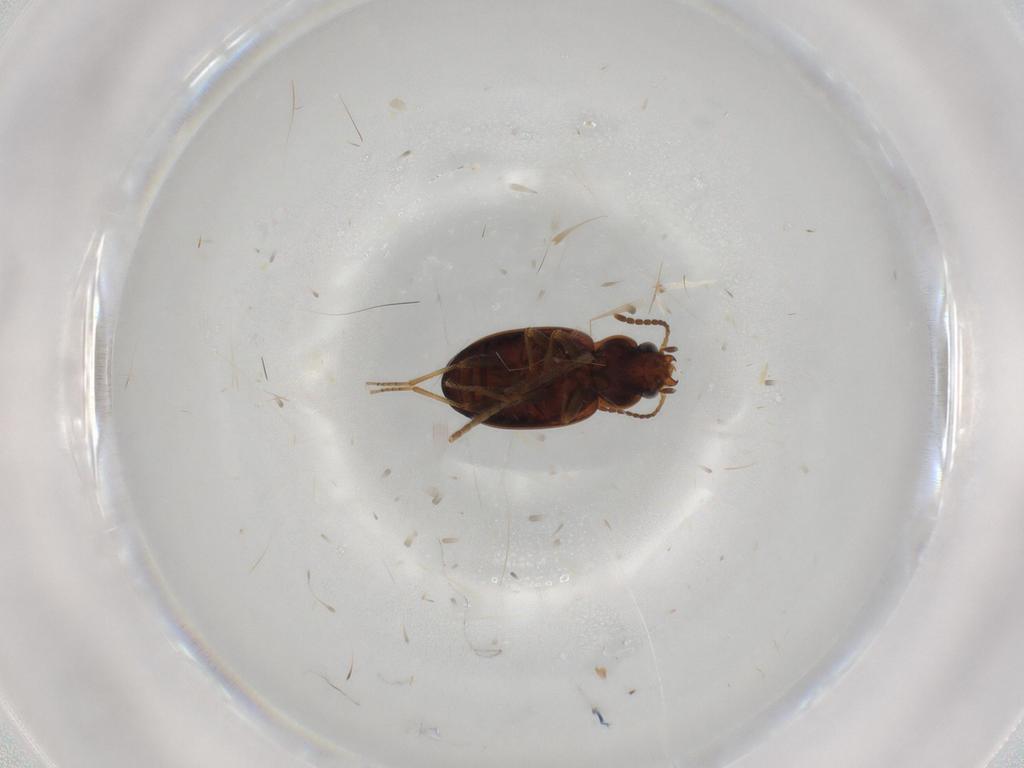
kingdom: Animalia
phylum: Arthropoda
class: Insecta
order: Coleoptera
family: Carabidae
